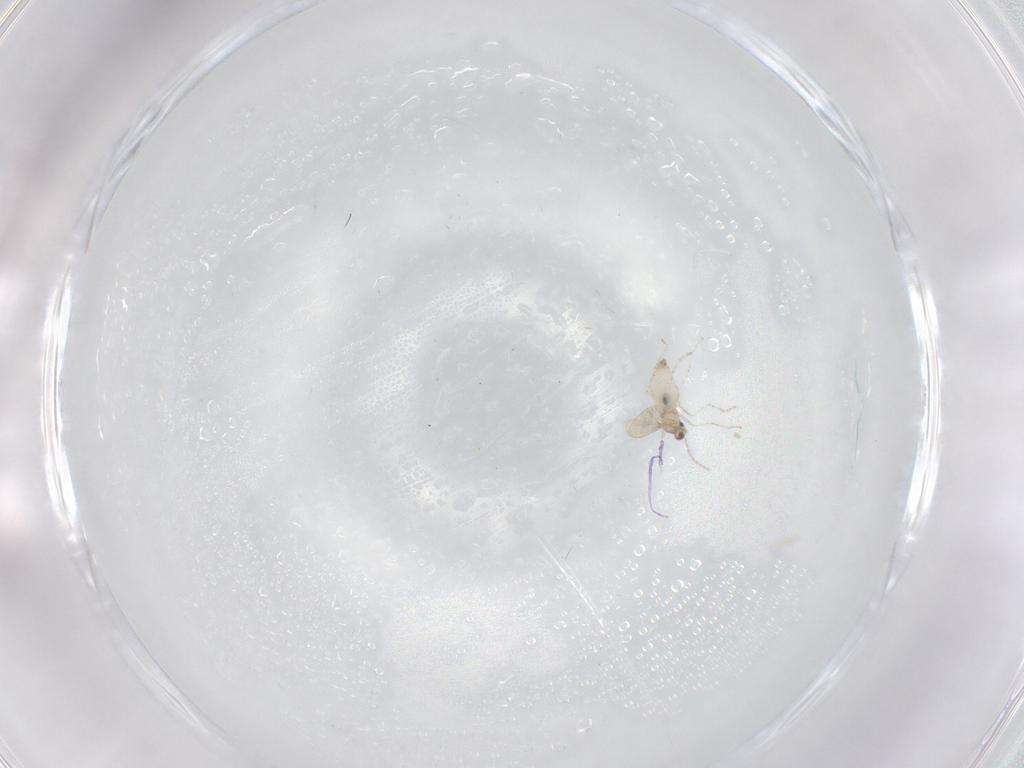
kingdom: Animalia
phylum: Arthropoda
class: Insecta
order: Diptera
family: Cecidomyiidae
